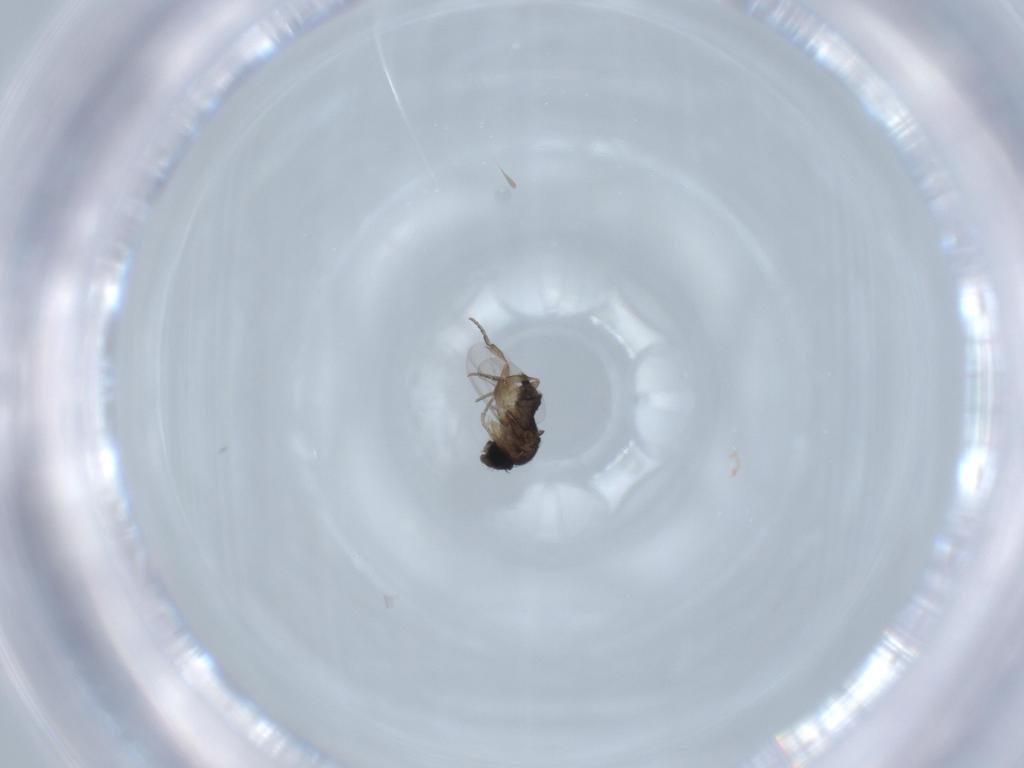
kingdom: Animalia
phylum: Arthropoda
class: Insecta
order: Diptera
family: Phoridae
